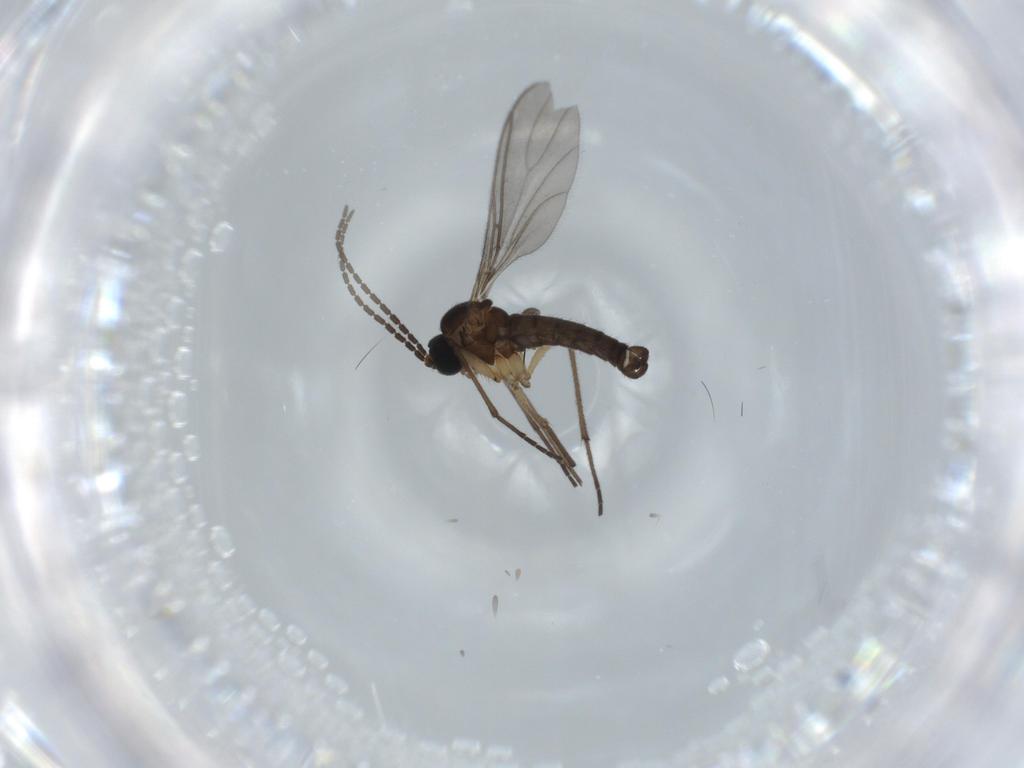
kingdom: Animalia
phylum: Arthropoda
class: Insecta
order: Diptera
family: Sciaridae
